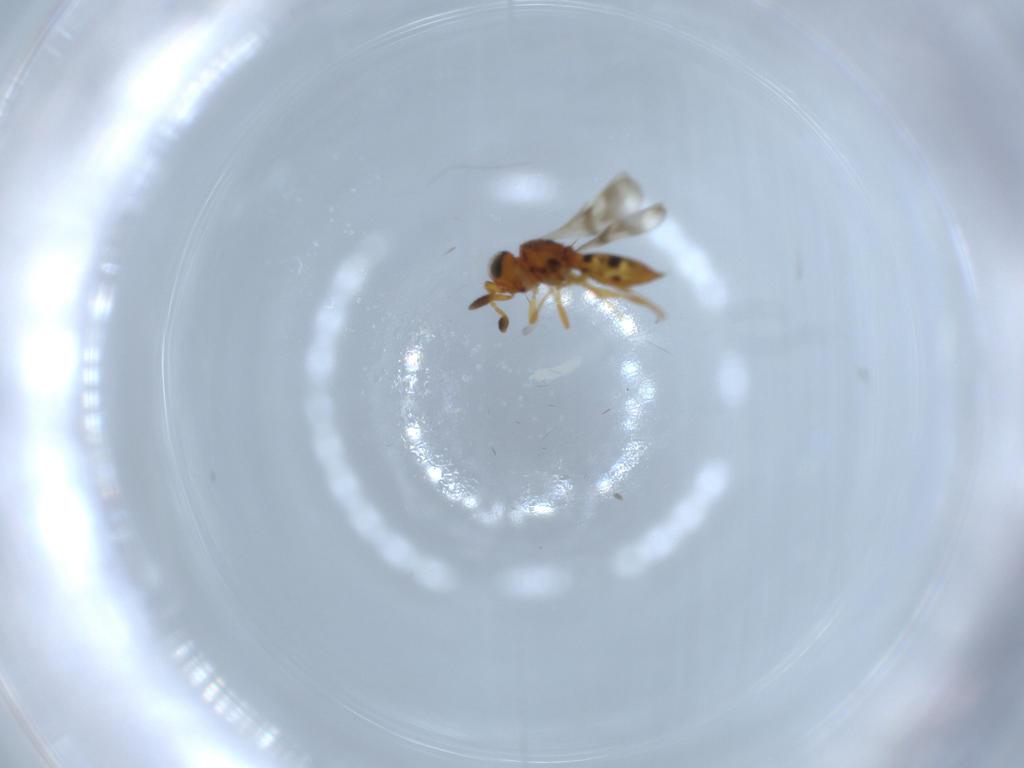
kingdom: Animalia
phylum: Arthropoda
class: Insecta
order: Hymenoptera
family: Scelionidae
